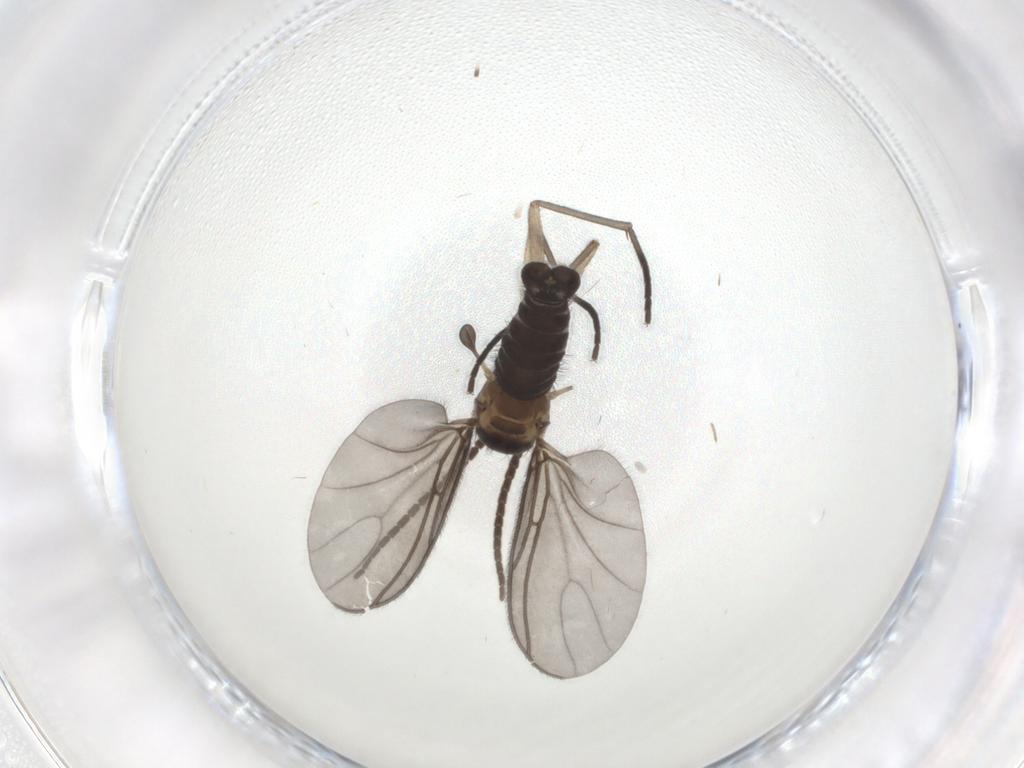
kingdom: Animalia
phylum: Arthropoda
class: Insecta
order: Diptera
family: Sciaridae
